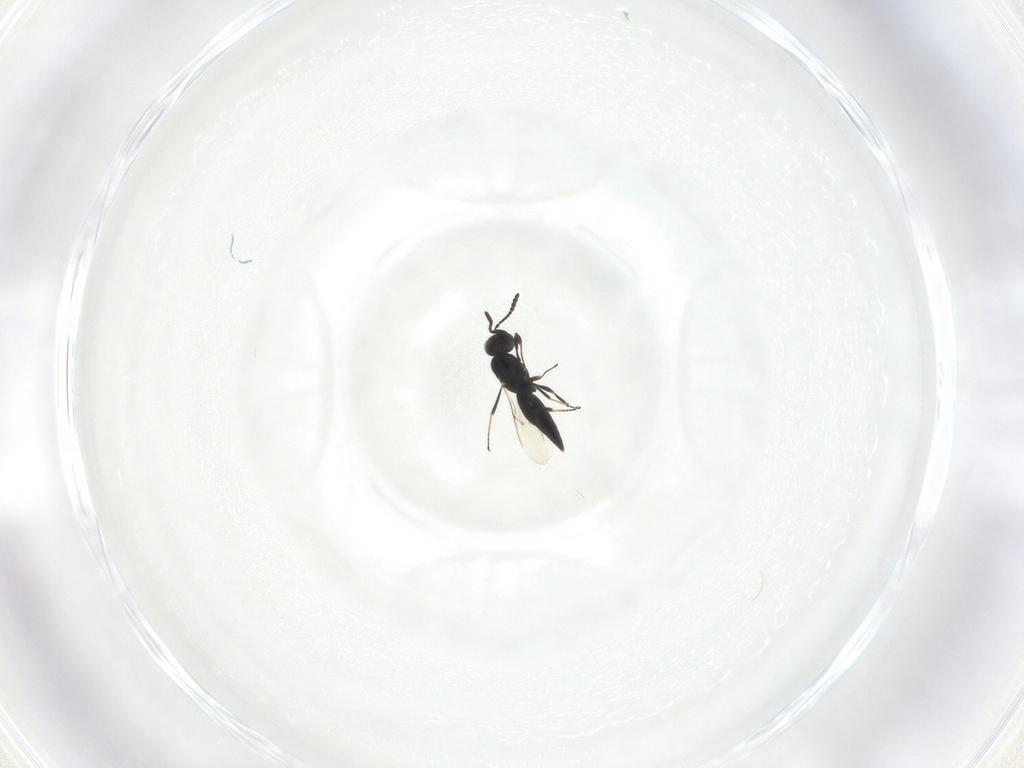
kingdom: Animalia
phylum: Arthropoda
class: Insecta
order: Hymenoptera
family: Scelionidae
